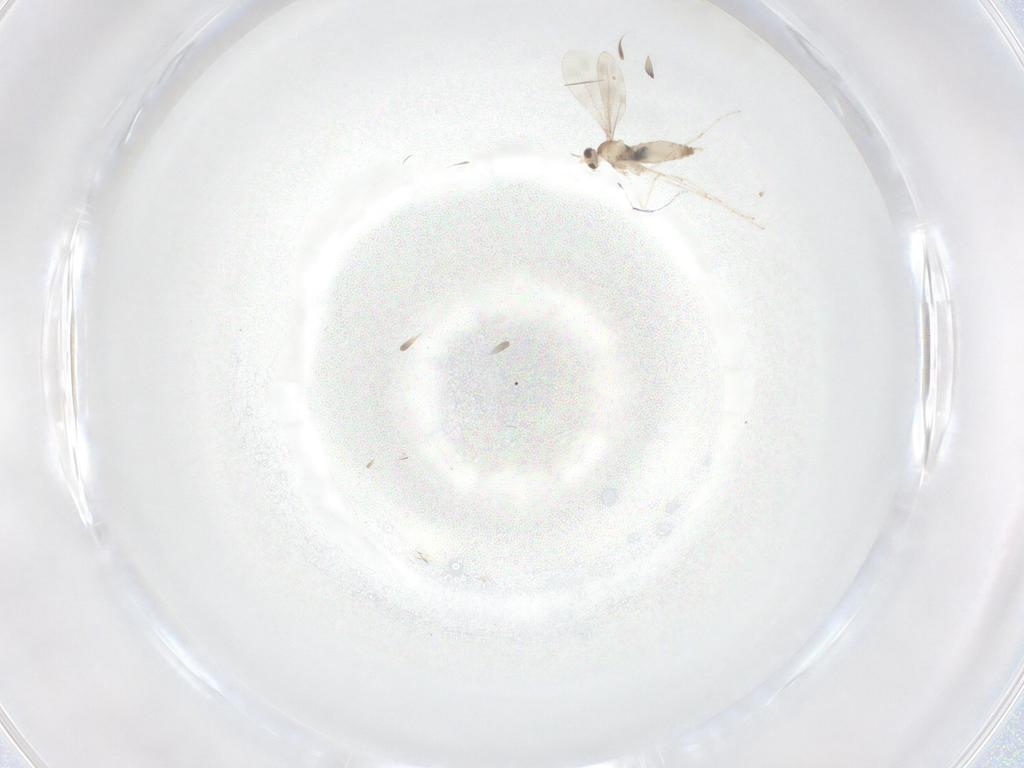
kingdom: Animalia
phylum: Arthropoda
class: Insecta
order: Diptera
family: Cecidomyiidae
